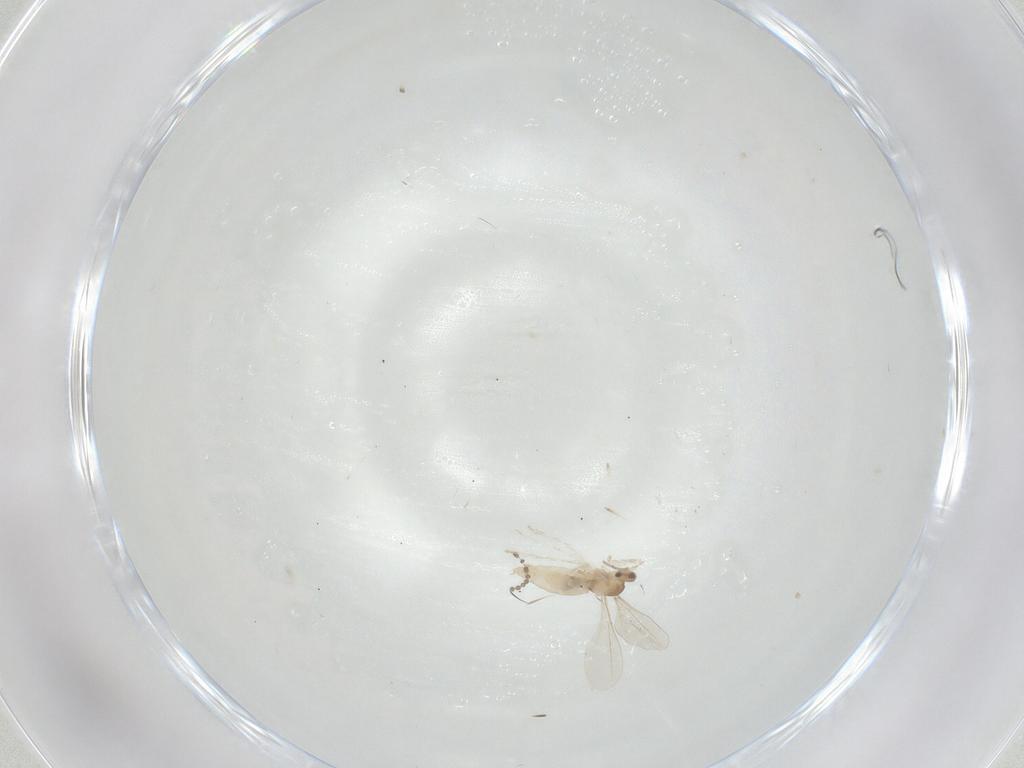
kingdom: Animalia
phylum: Arthropoda
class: Insecta
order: Diptera
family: Cecidomyiidae
